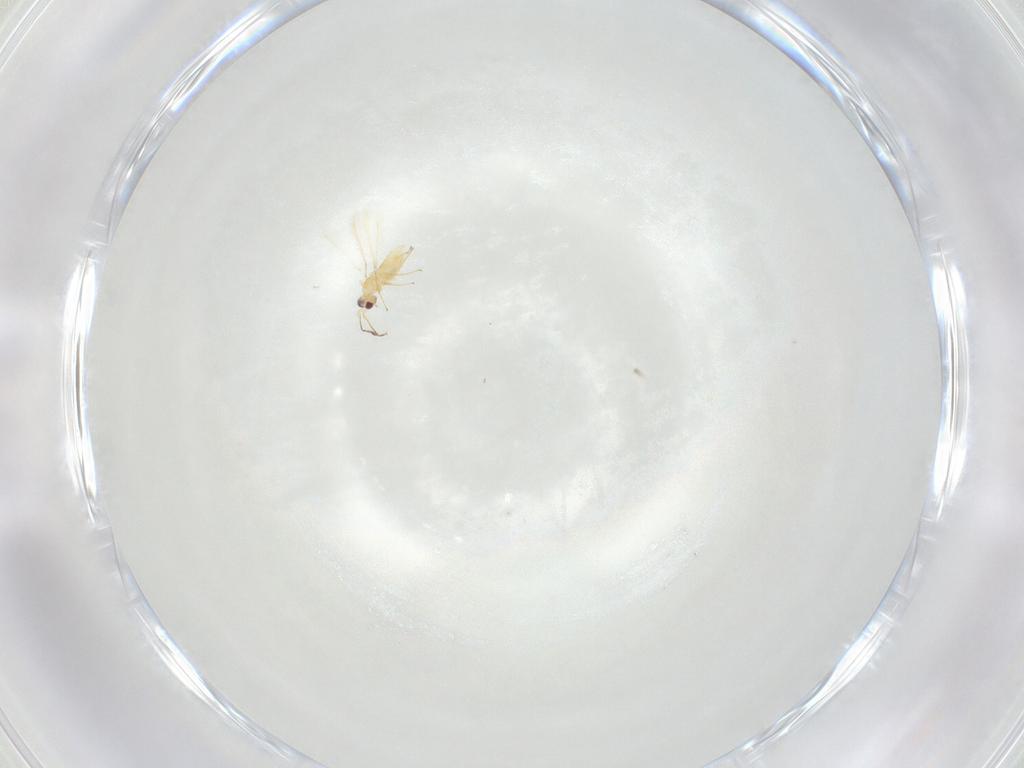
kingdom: Animalia
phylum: Arthropoda
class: Insecta
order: Hymenoptera
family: Mymaridae
